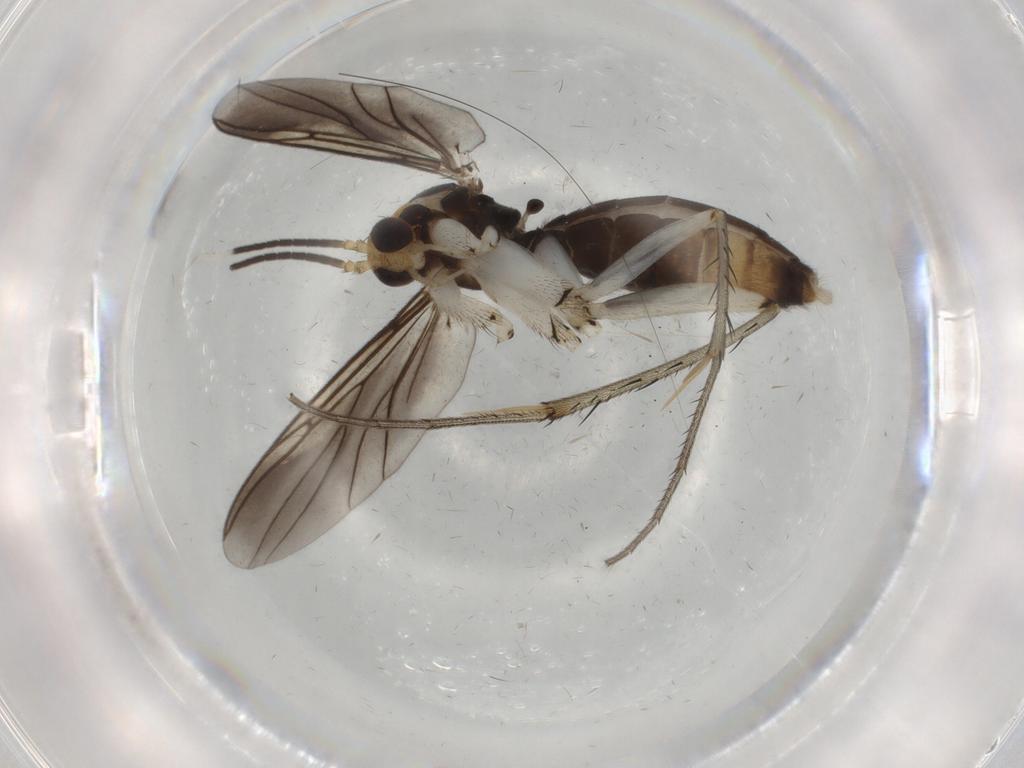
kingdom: Animalia
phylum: Arthropoda
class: Insecta
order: Diptera
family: Mycetophilidae
